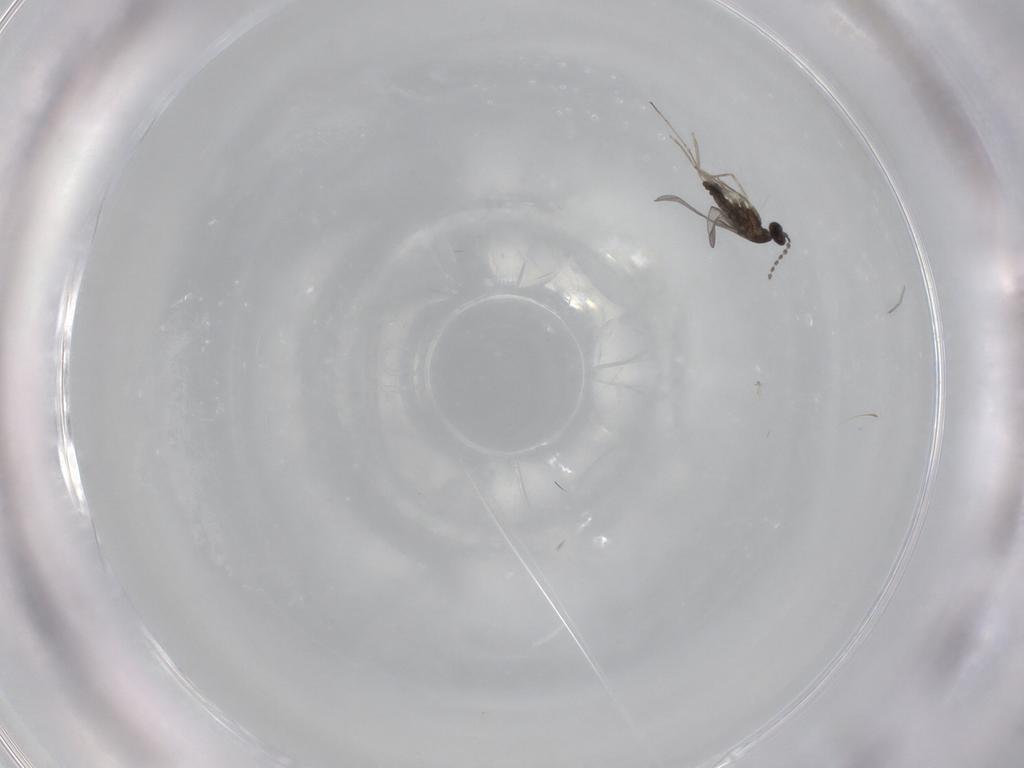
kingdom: Animalia
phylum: Arthropoda
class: Insecta
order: Diptera
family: Cecidomyiidae
